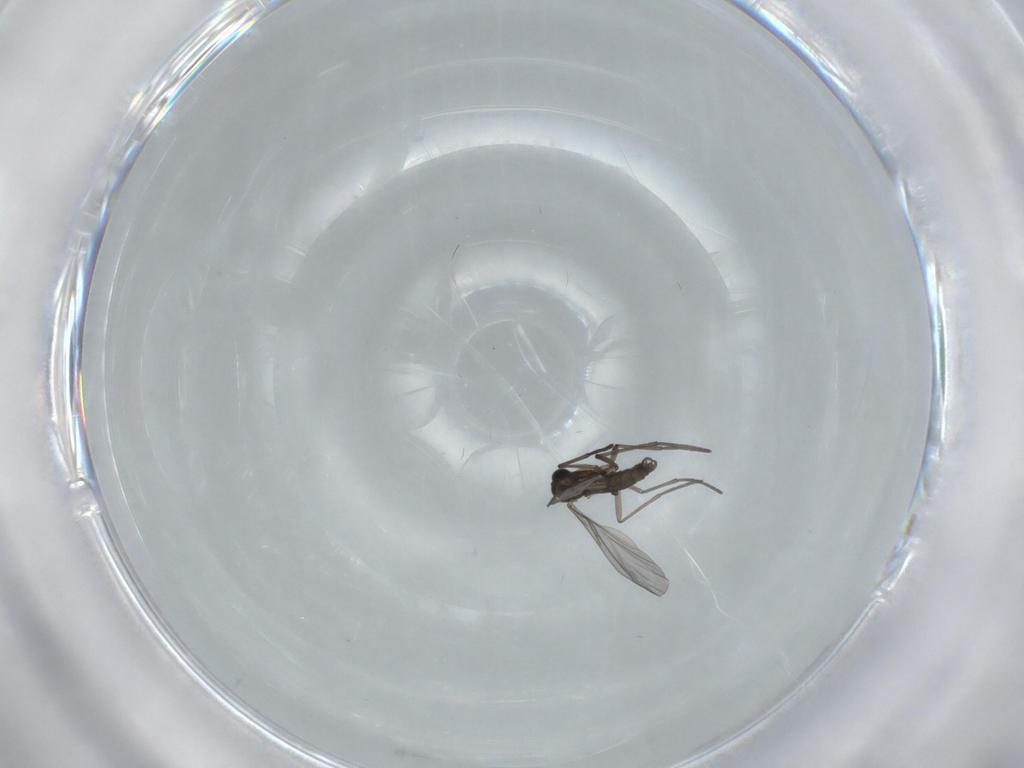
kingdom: Animalia
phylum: Arthropoda
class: Insecta
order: Diptera
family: Sciaridae
